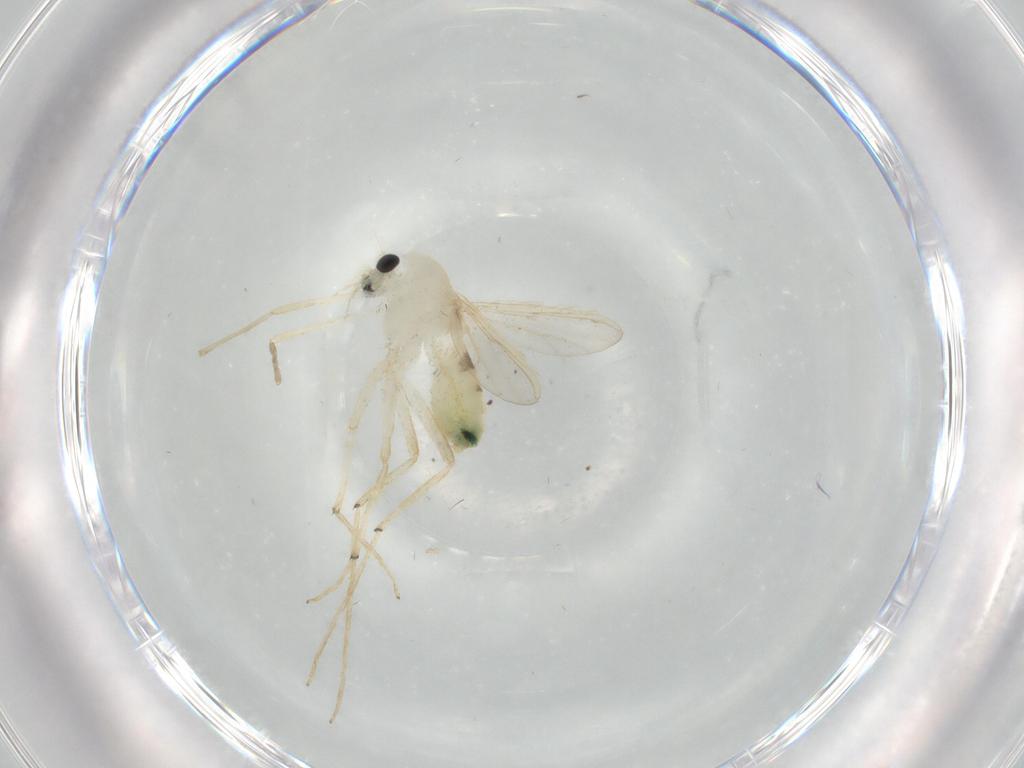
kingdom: Animalia
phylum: Arthropoda
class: Insecta
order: Diptera
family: Chironomidae
